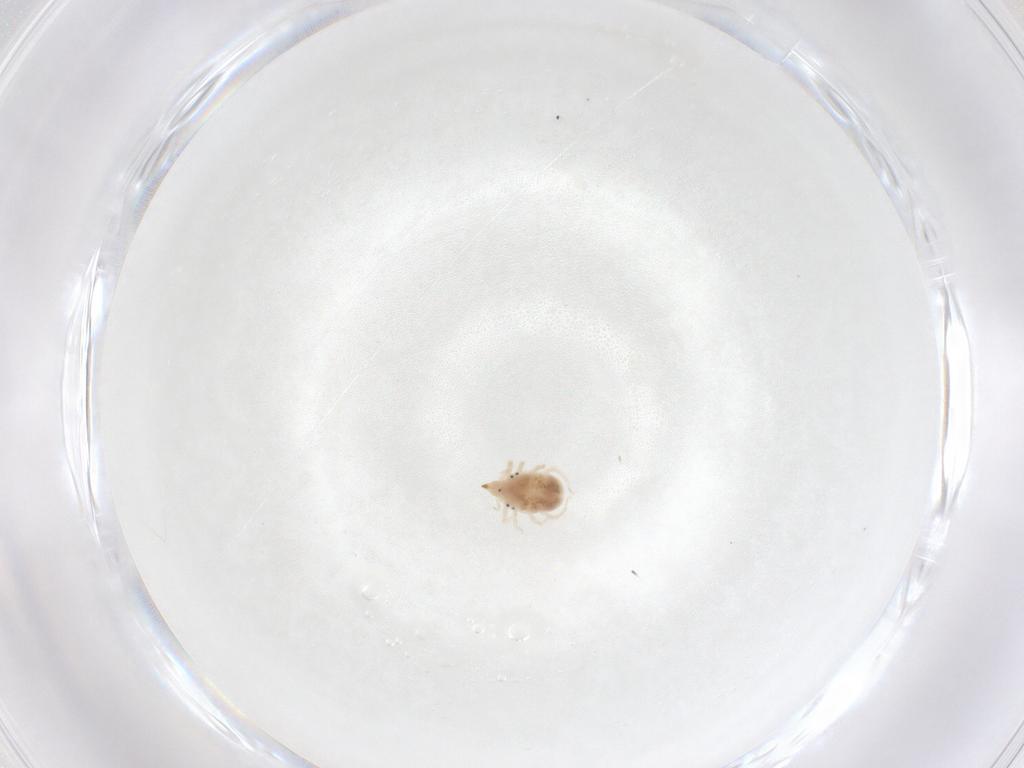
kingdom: Animalia
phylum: Arthropoda
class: Arachnida
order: Trombidiformes
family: Bdellidae
